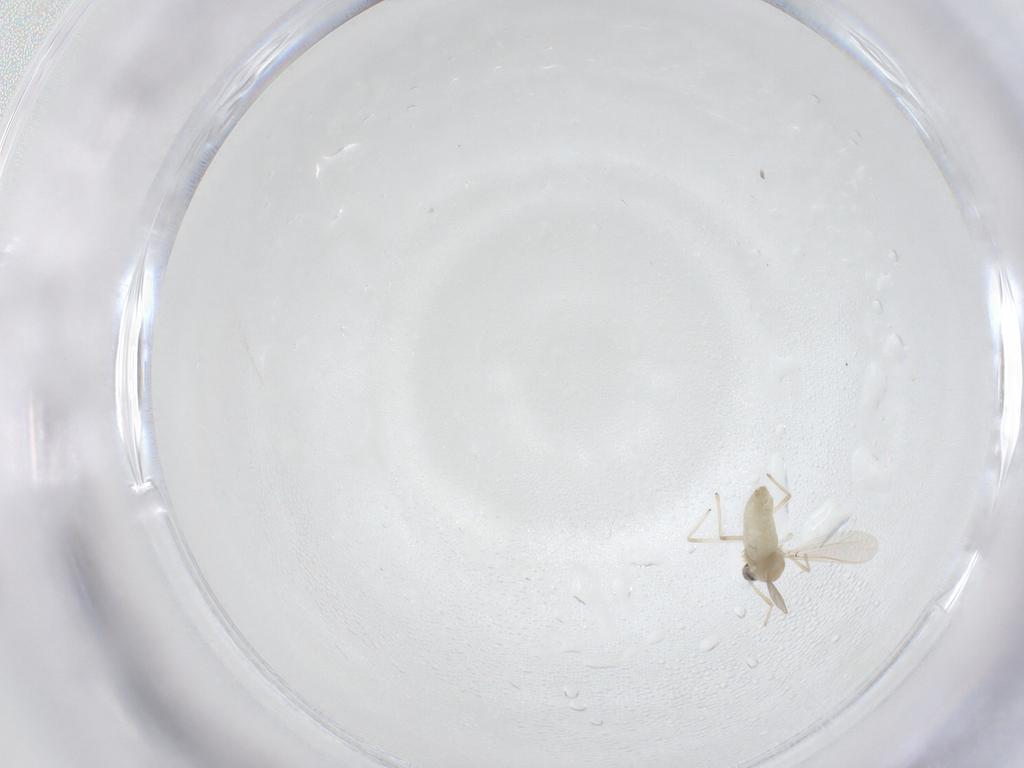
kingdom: Animalia
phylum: Arthropoda
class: Insecta
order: Diptera
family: Chironomidae
